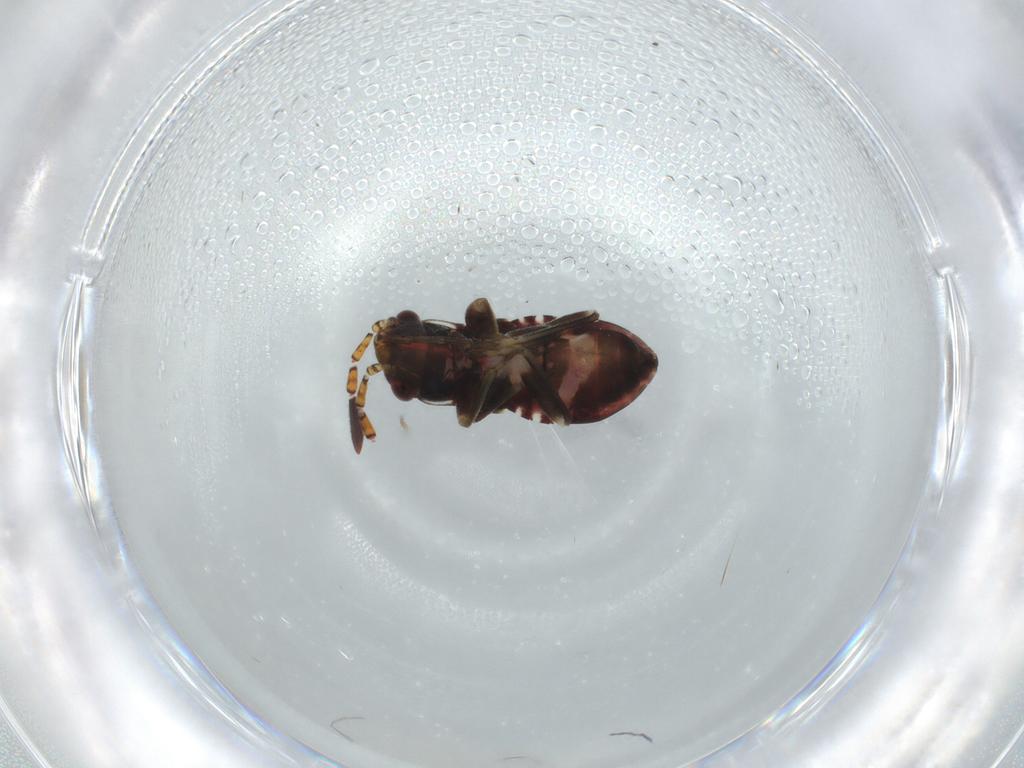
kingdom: Animalia
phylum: Arthropoda
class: Insecta
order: Hemiptera
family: Rhyparochromidae
